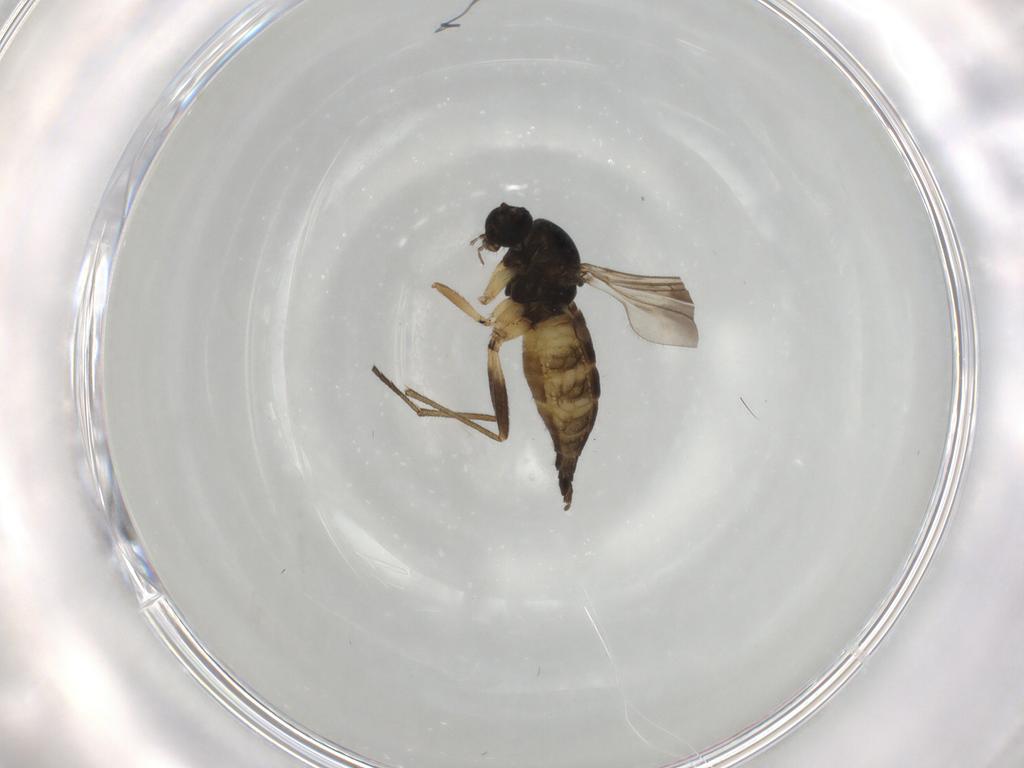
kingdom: Animalia
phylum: Arthropoda
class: Insecta
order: Diptera
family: Sciaridae
